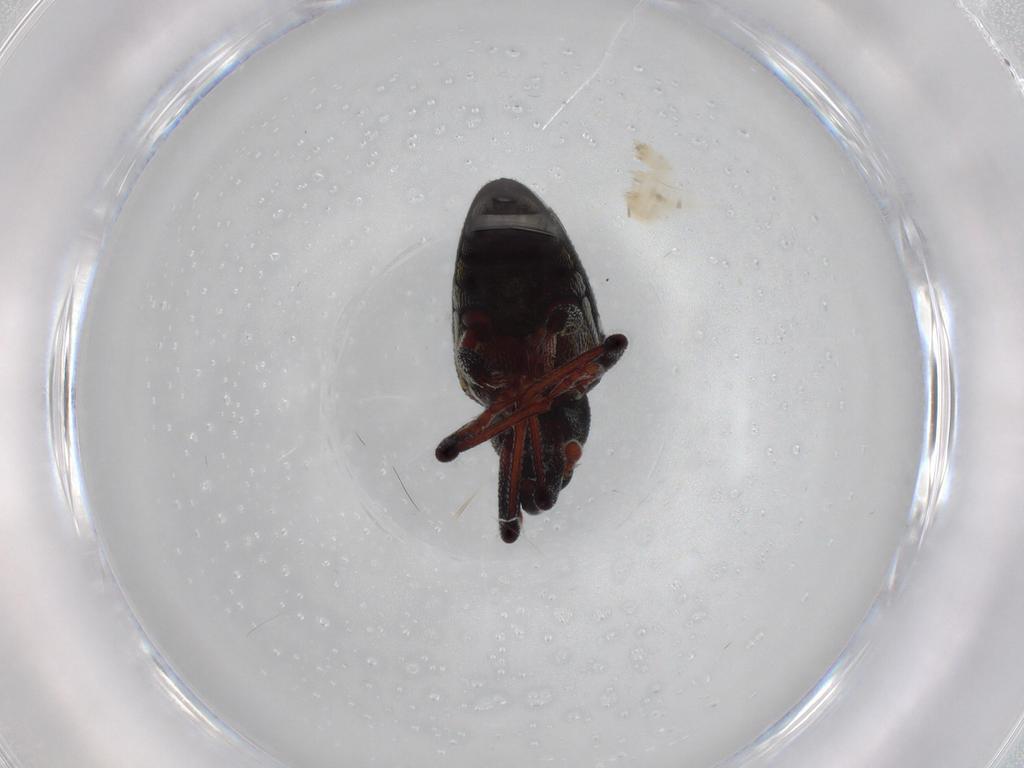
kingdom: Animalia
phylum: Arthropoda
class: Insecta
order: Coleoptera
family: Curculionidae
